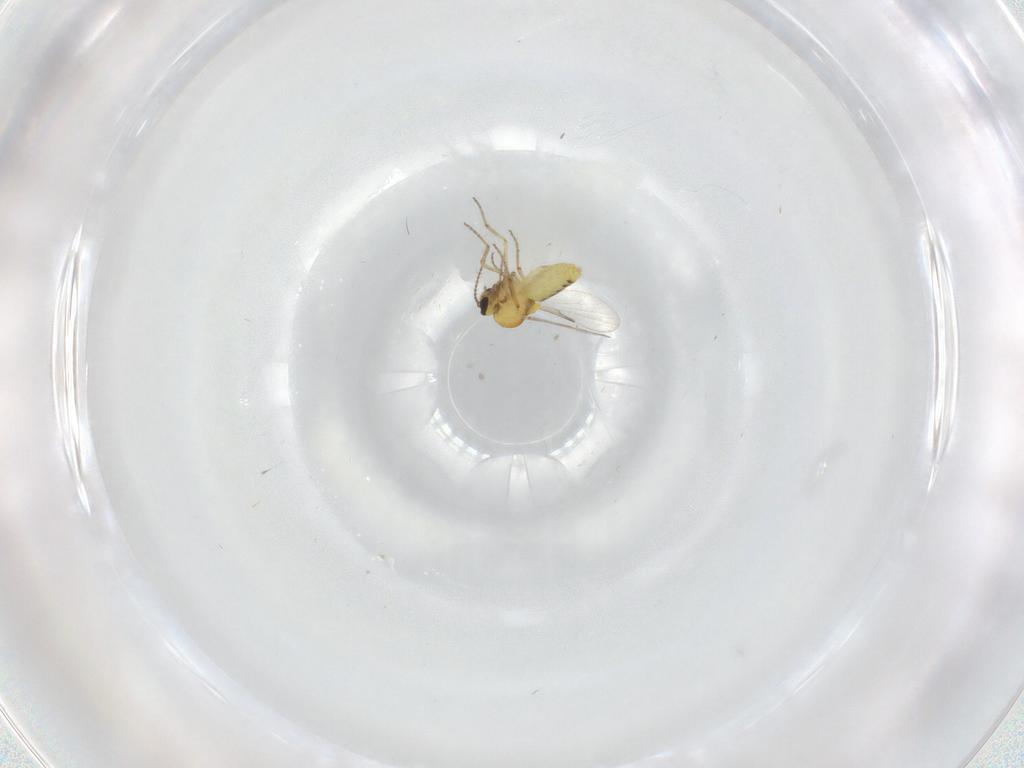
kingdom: Animalia
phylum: Arthropoda
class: Insecta
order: Diptera
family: Ceratopogonidae
